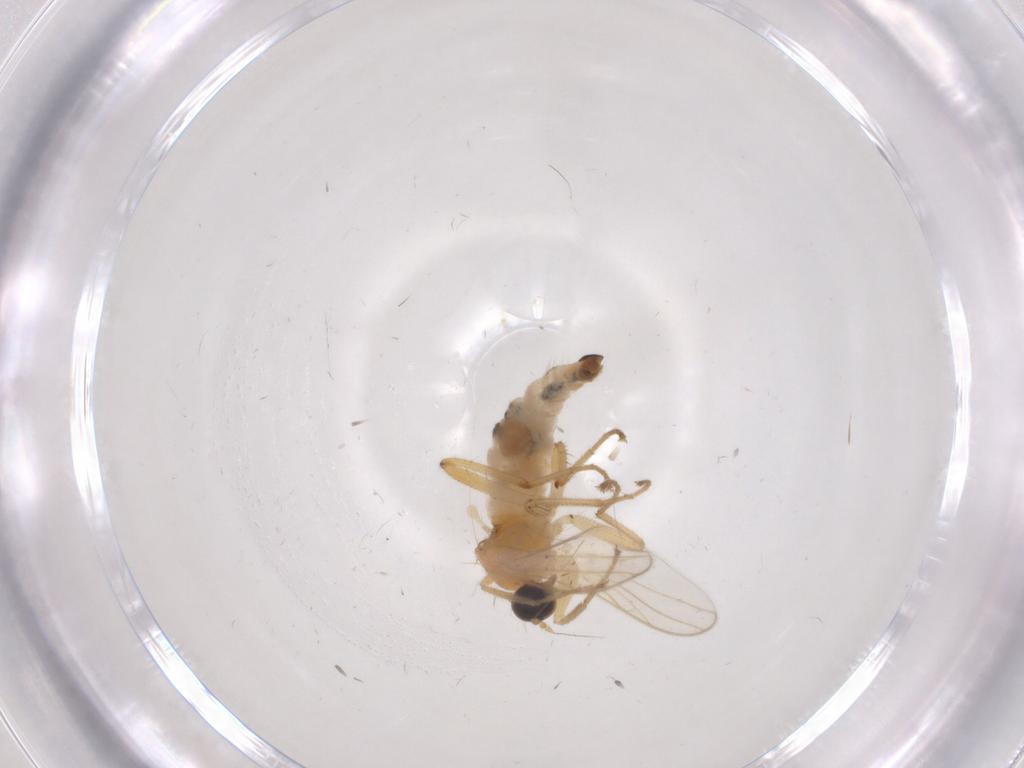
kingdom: Animalia
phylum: Arthropoda
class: Insecta
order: Diptera
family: Hybotidae
